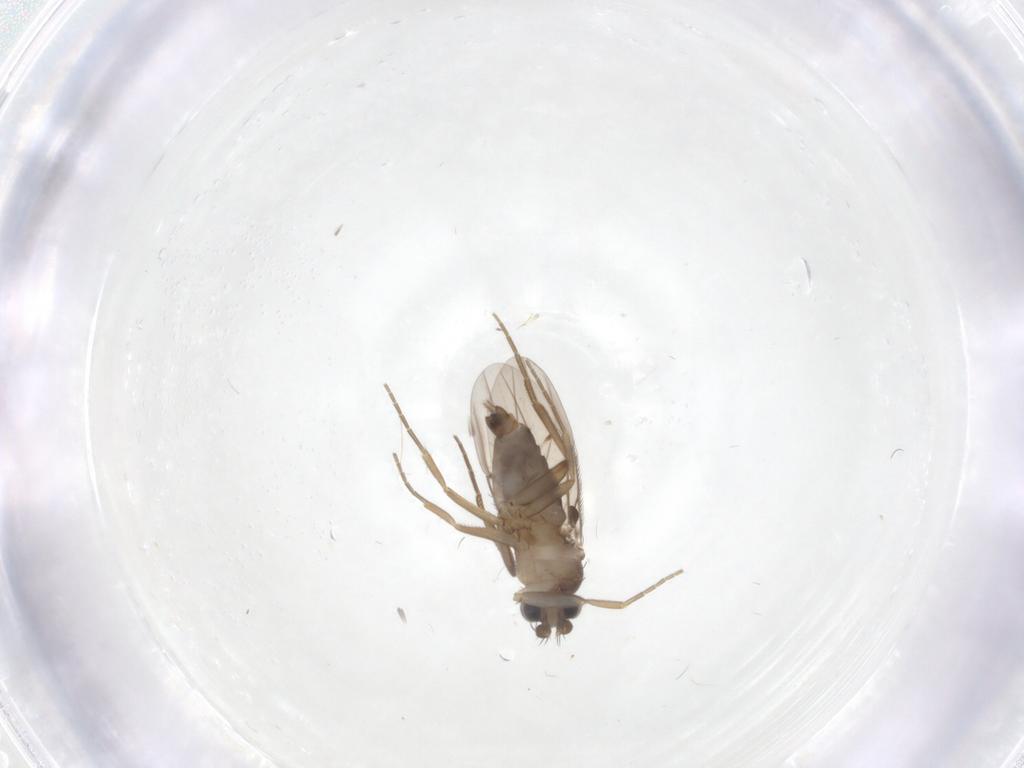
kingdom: Animalia
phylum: Arthropoda
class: Insecta
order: Diptera
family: Phoridae
